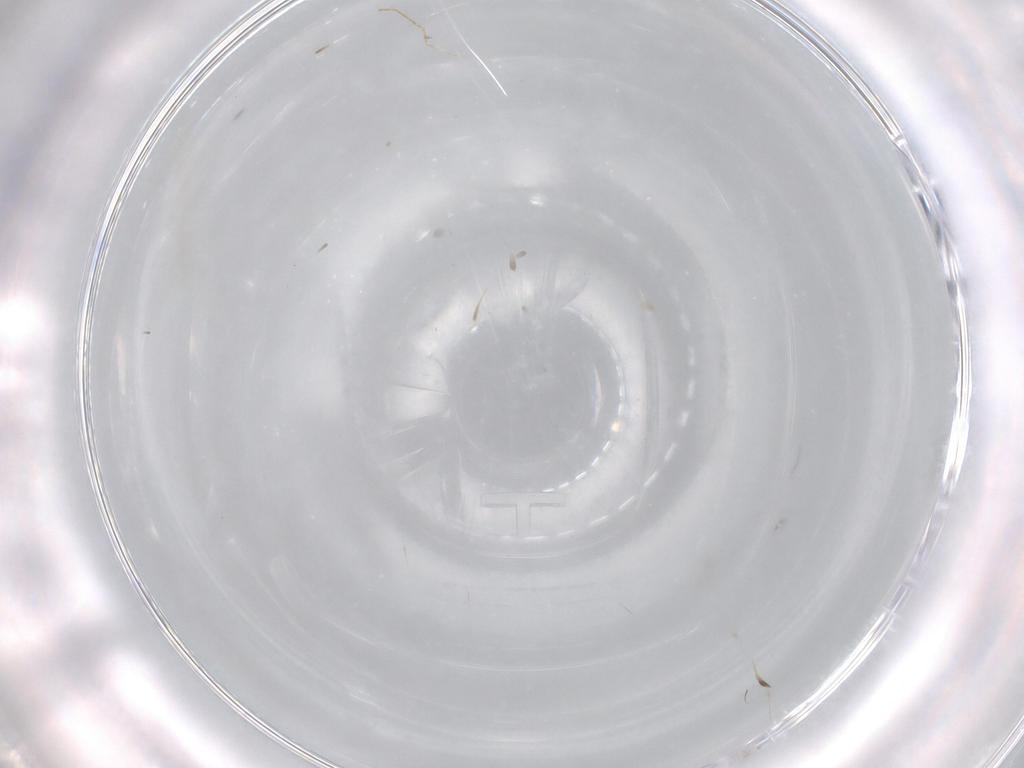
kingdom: Animalia
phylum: Arthropoda
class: Insecta
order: Diptera
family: Cecidomyiidae
